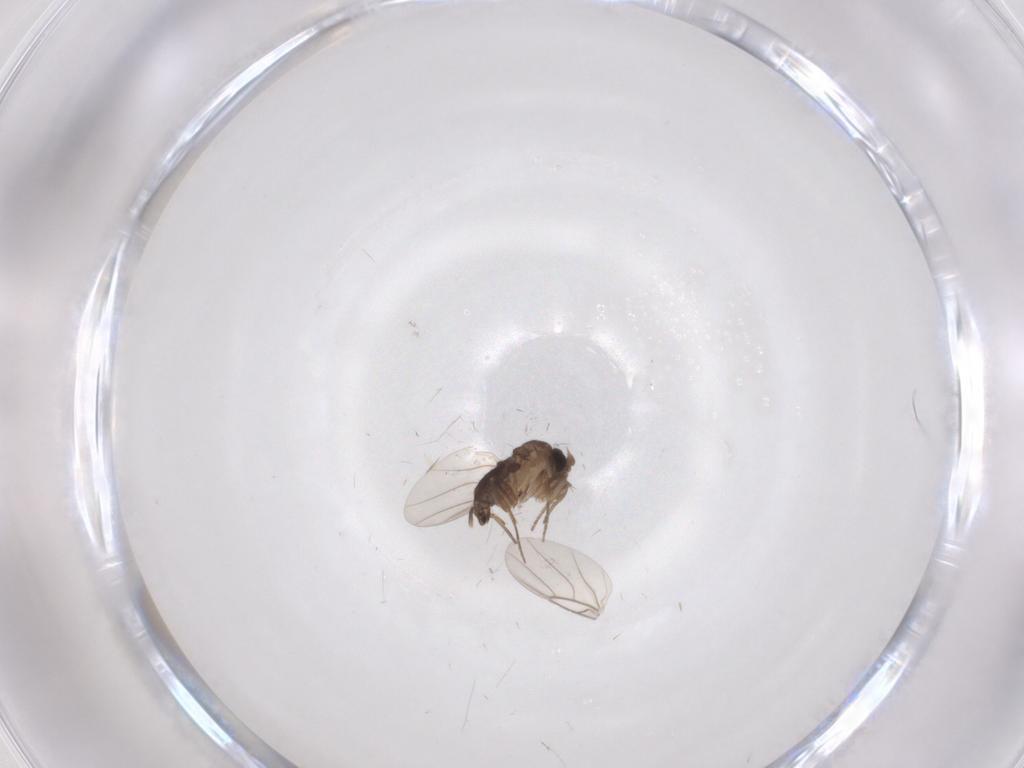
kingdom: Animalia
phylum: Arthropoda
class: Insecta
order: Diptera
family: Phoridae
